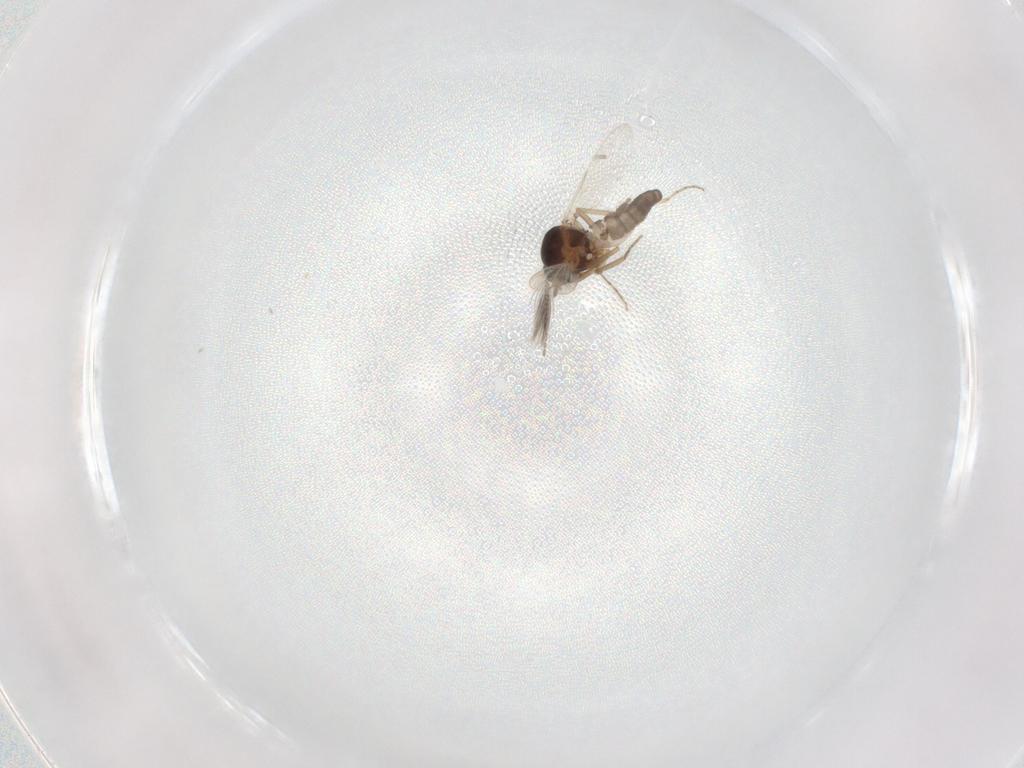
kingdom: Animalia
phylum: Arthropoda
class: Insecta
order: Diptera
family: Ceratopogonidae
